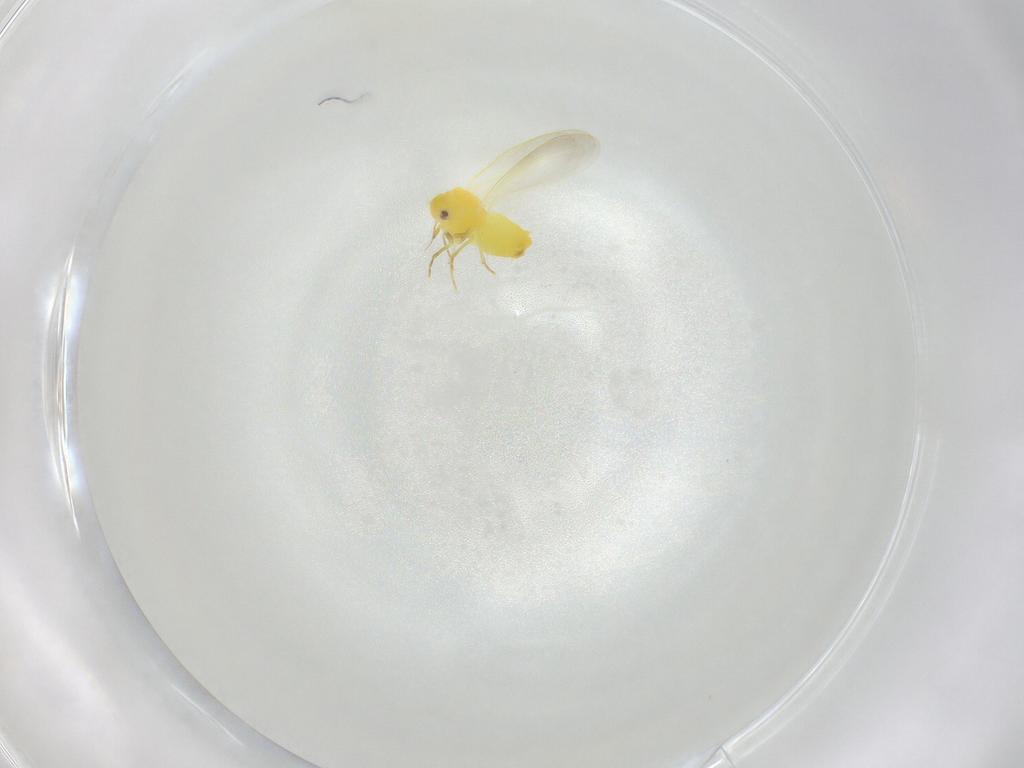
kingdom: Animalia
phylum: Arthropoda
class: Insecta
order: Hemiptera
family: Aleyrodidae
